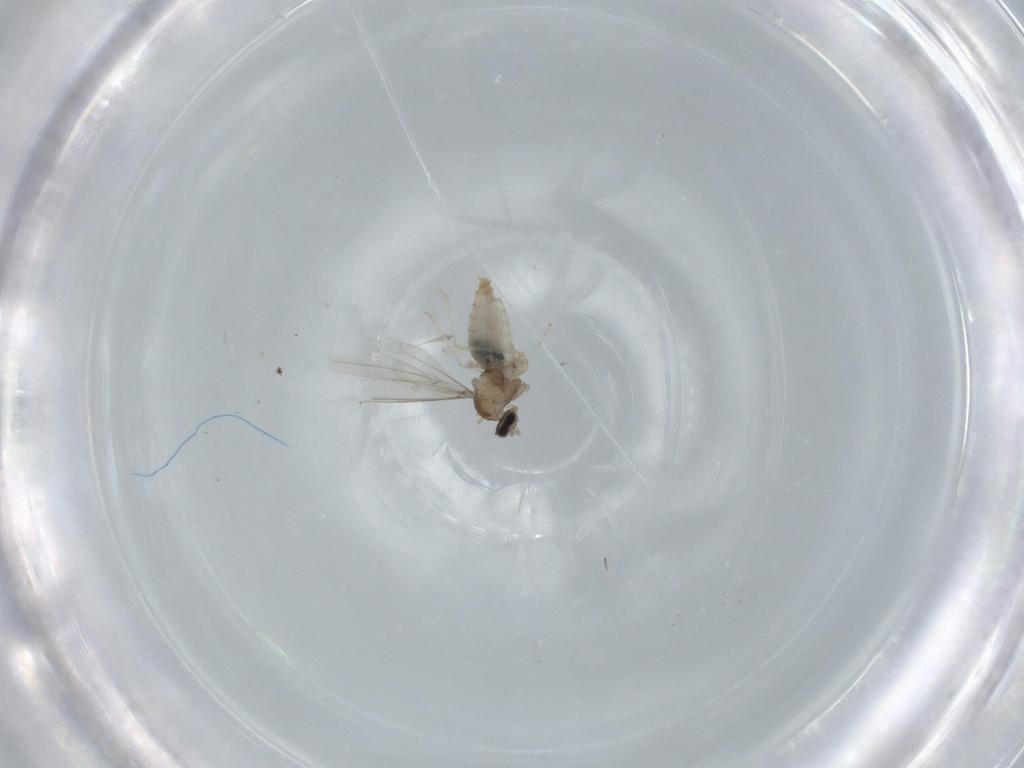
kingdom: Animalia
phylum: Arthropoda
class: Insecta
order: Diptera
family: Dolichopodidae
